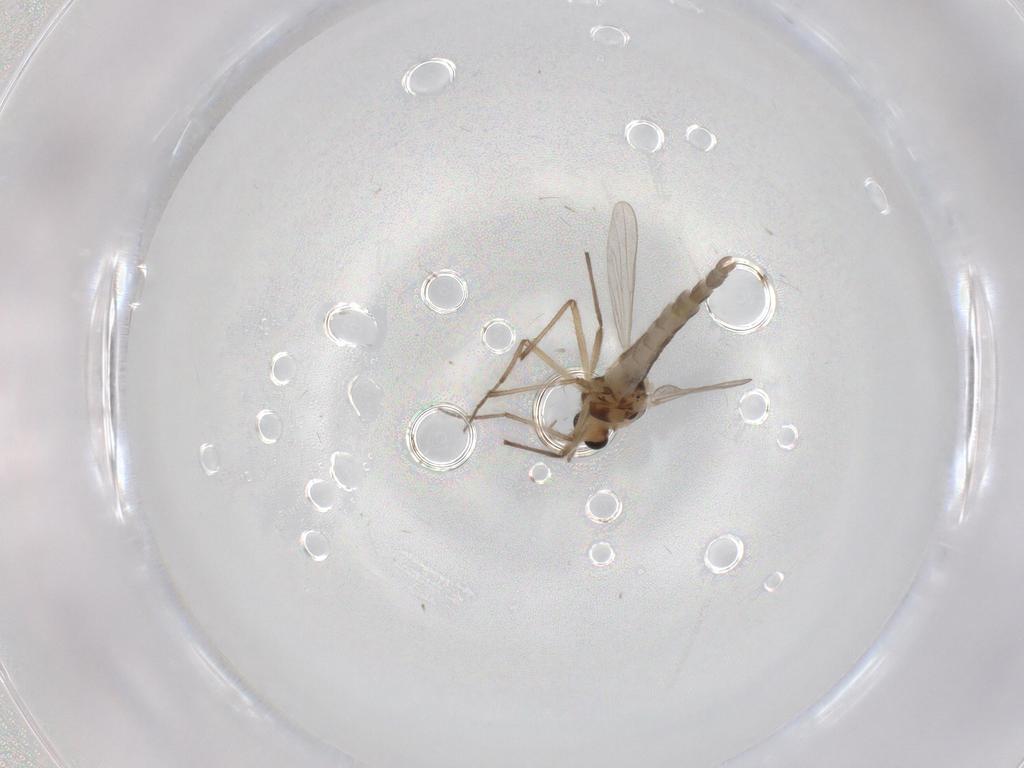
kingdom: Animalia
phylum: Arthropoda
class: Insecta
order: Diptera
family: Chironomidae
